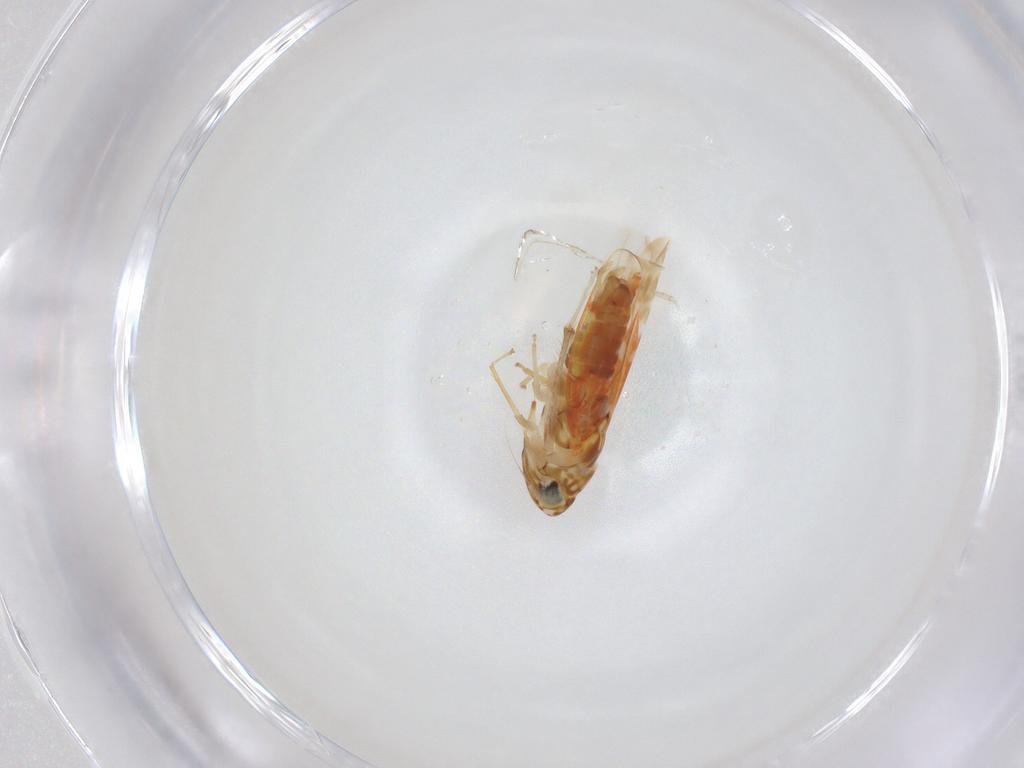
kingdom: Animalia
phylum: Arthropoda
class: Insecta
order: Hemiptera
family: Cicadellidae
